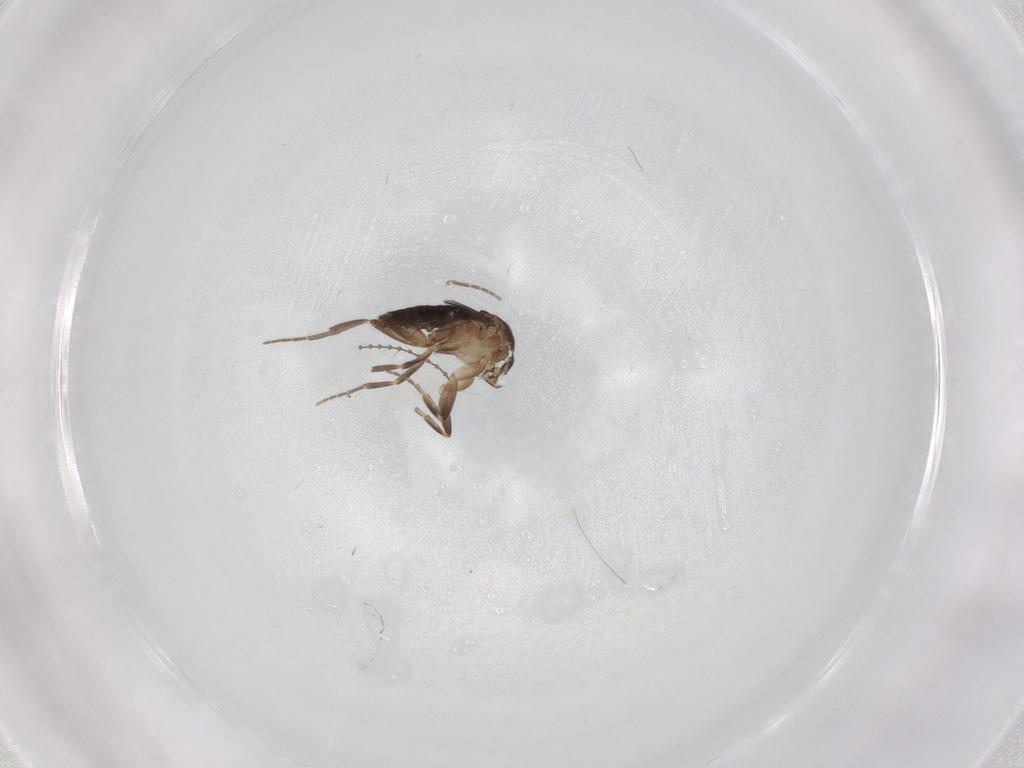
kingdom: Animalia
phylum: Arthropoda
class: Insecta
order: Diptera
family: Cecidomyiidae
